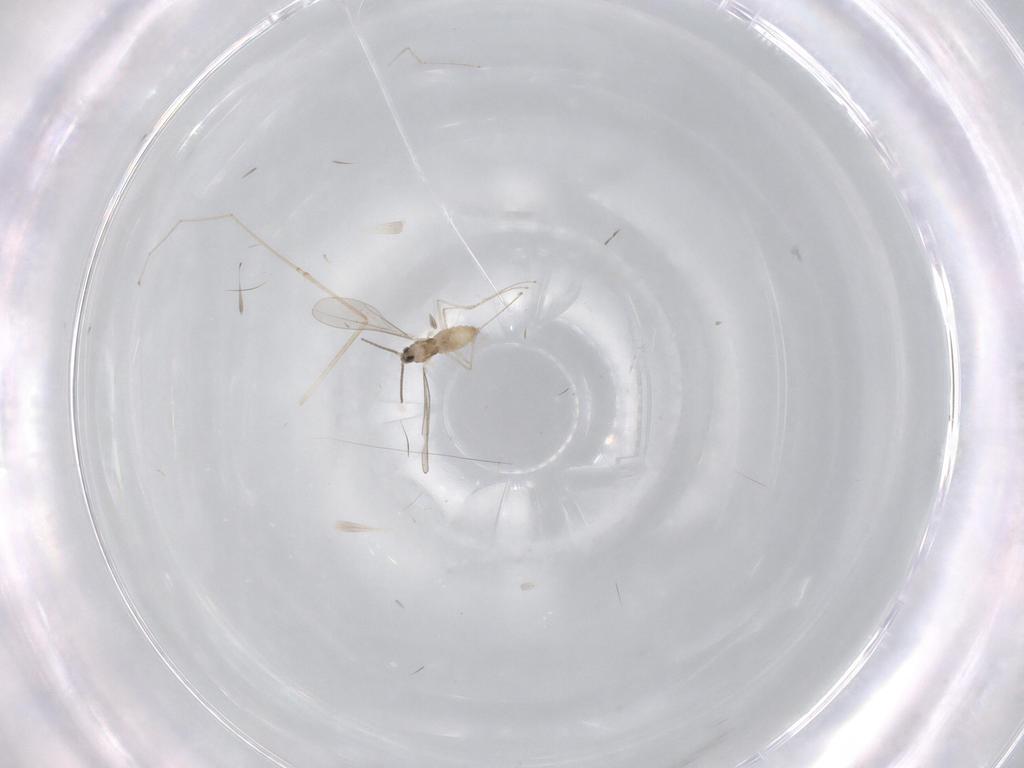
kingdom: Animalia
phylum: Arthropoda
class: Insecta
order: Diptera
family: Cecidomyiidae
